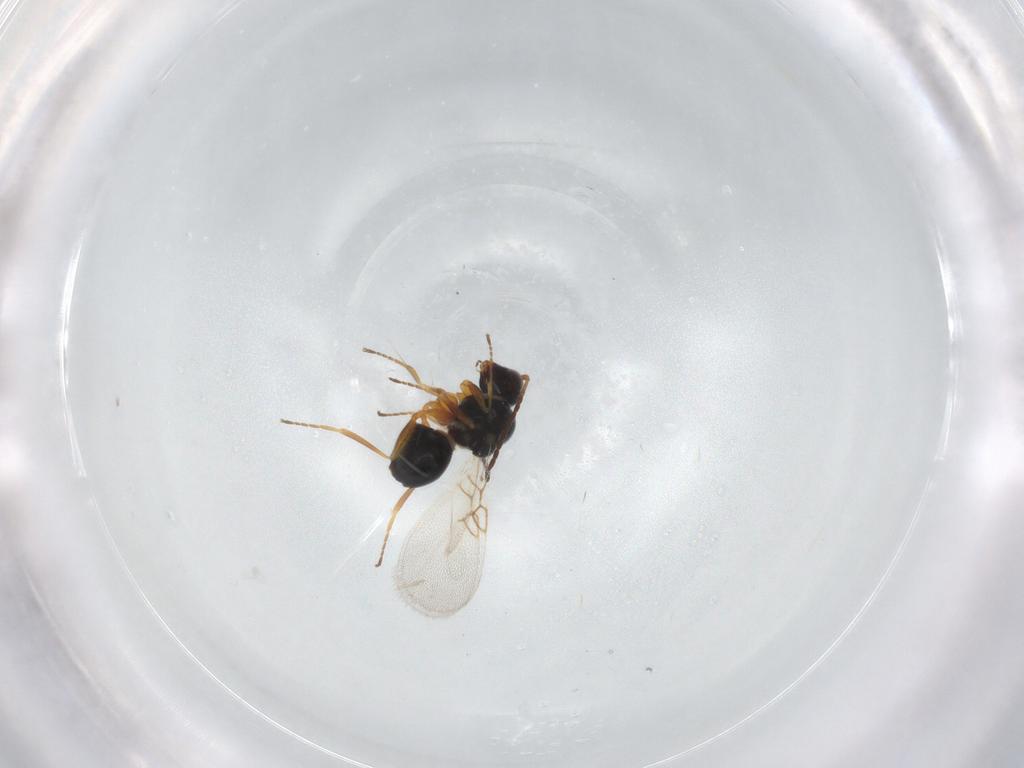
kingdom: Animalia
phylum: Arthropoda
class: Insecta
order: Hymenoptera
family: Figitidae
